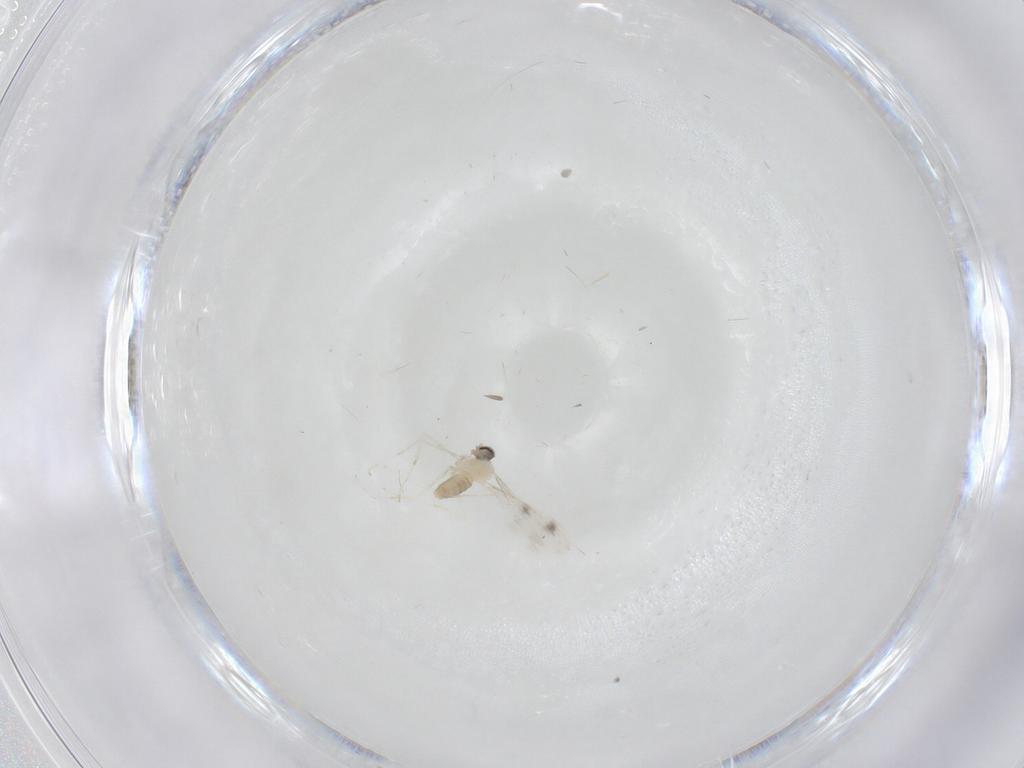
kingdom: Animalia
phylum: Arthropoda
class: Insecta
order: Diptera
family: Cecidomyiidae
